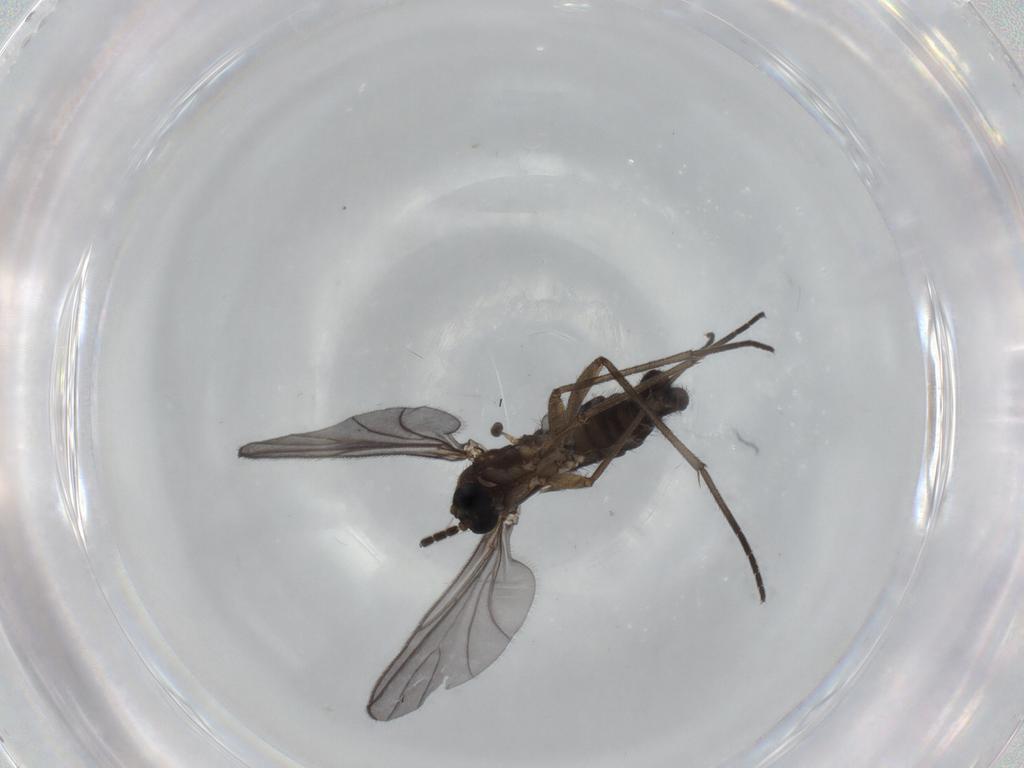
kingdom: Animalia
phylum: Arthropoda
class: Insecta
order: Diptera
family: Sciaridae
